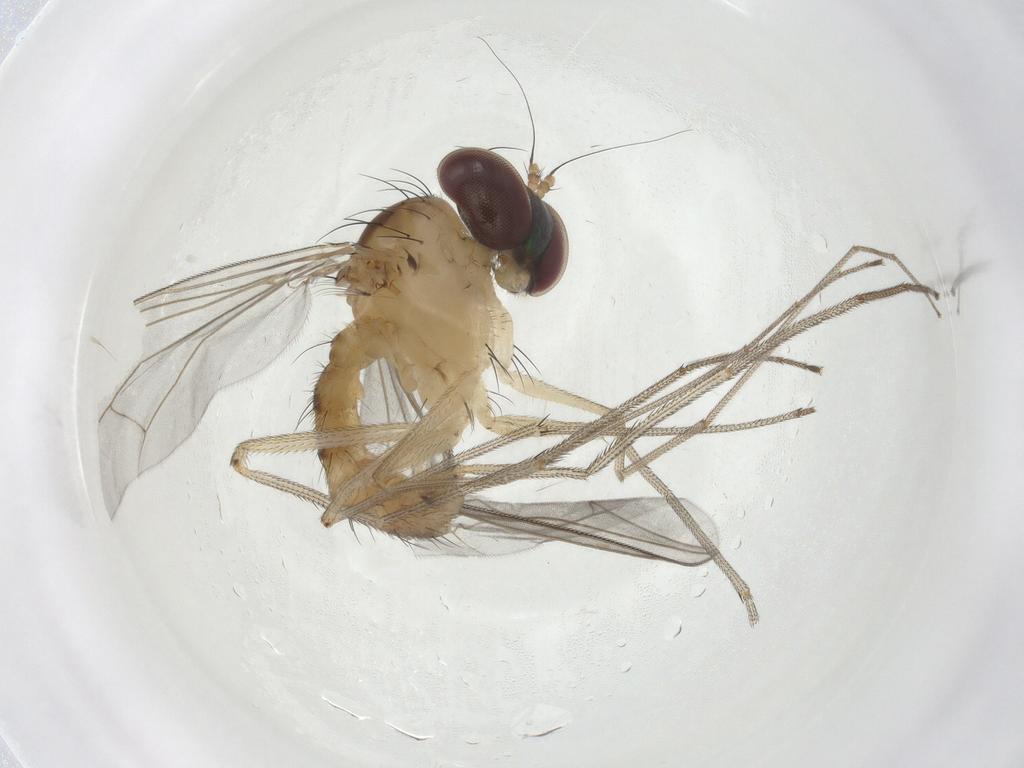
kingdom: Animalia
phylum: Arthropoda
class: Insecta
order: Diptera
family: Dolichopodidae
